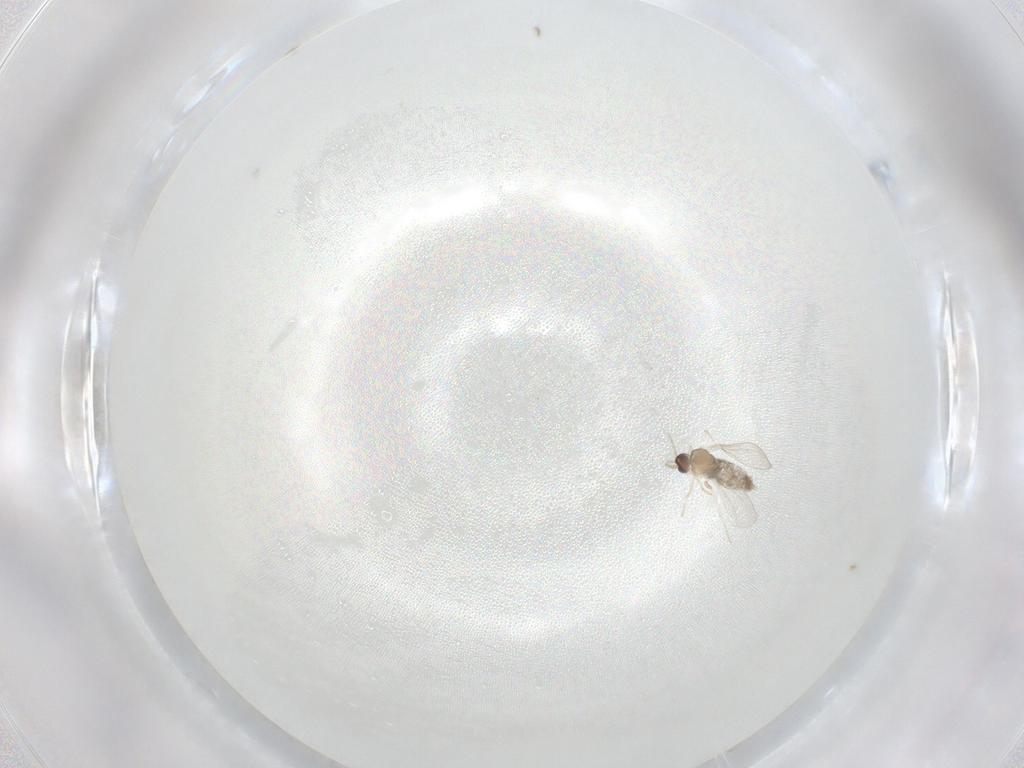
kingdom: Animalia
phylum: Arthropoda
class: Insecta
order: Diptera
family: Cecidomyiidae
